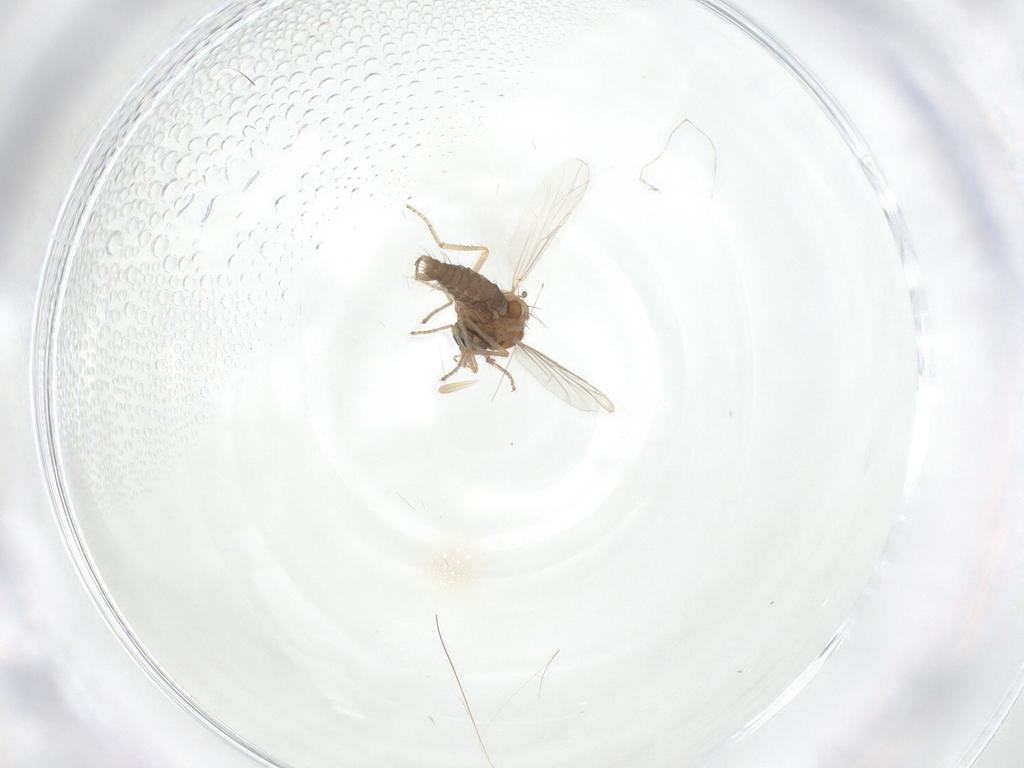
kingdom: Animalia
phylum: Arthropoda
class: Insecta
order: Diptera
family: Ceratopogonidae
